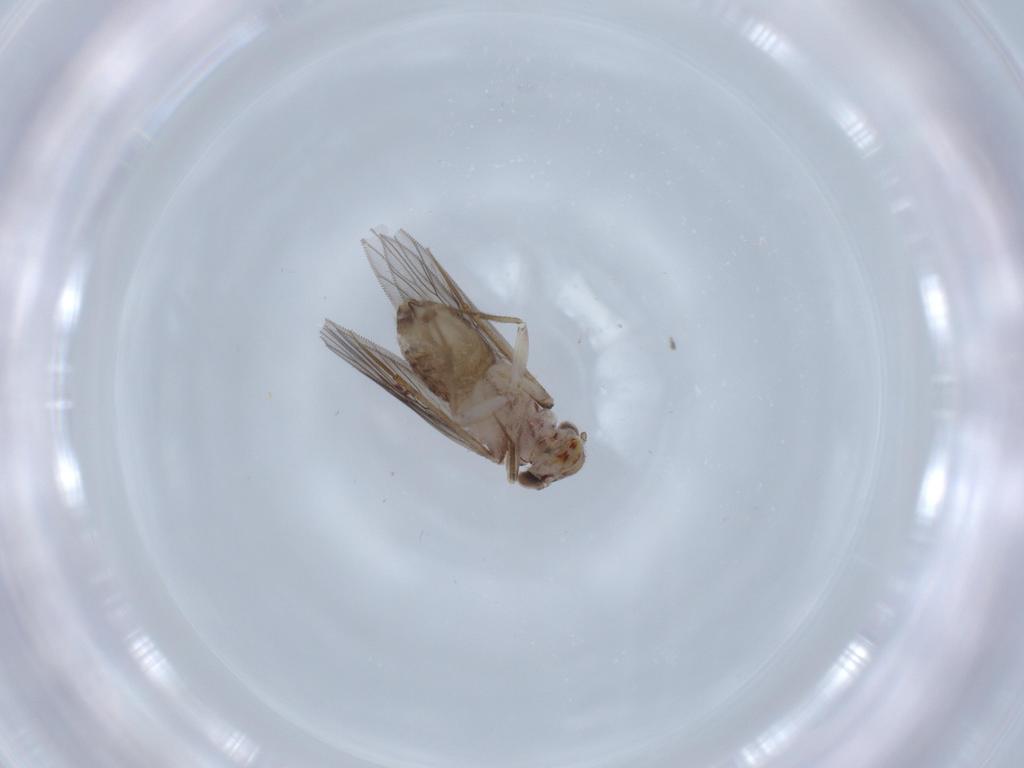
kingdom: Animalia
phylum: Arthropoda
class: Insecta
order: Psocodea
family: Lepidopsocidae
